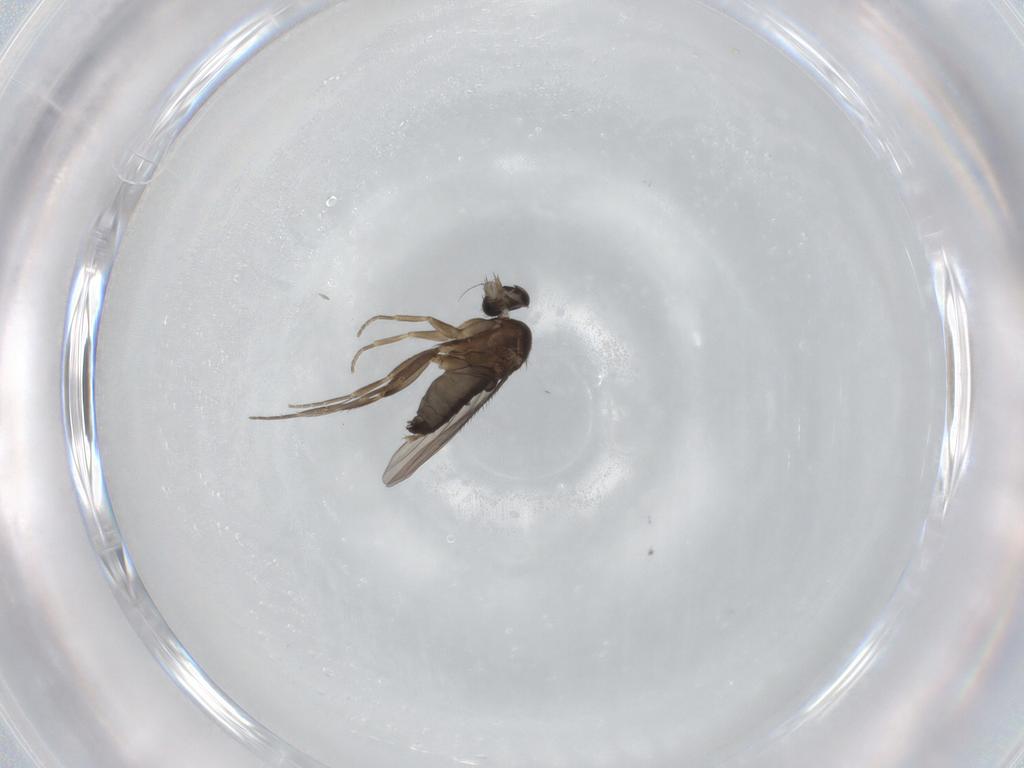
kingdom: Animalia
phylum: Arthropoda
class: Insecta
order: Diptera
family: Phoridae
